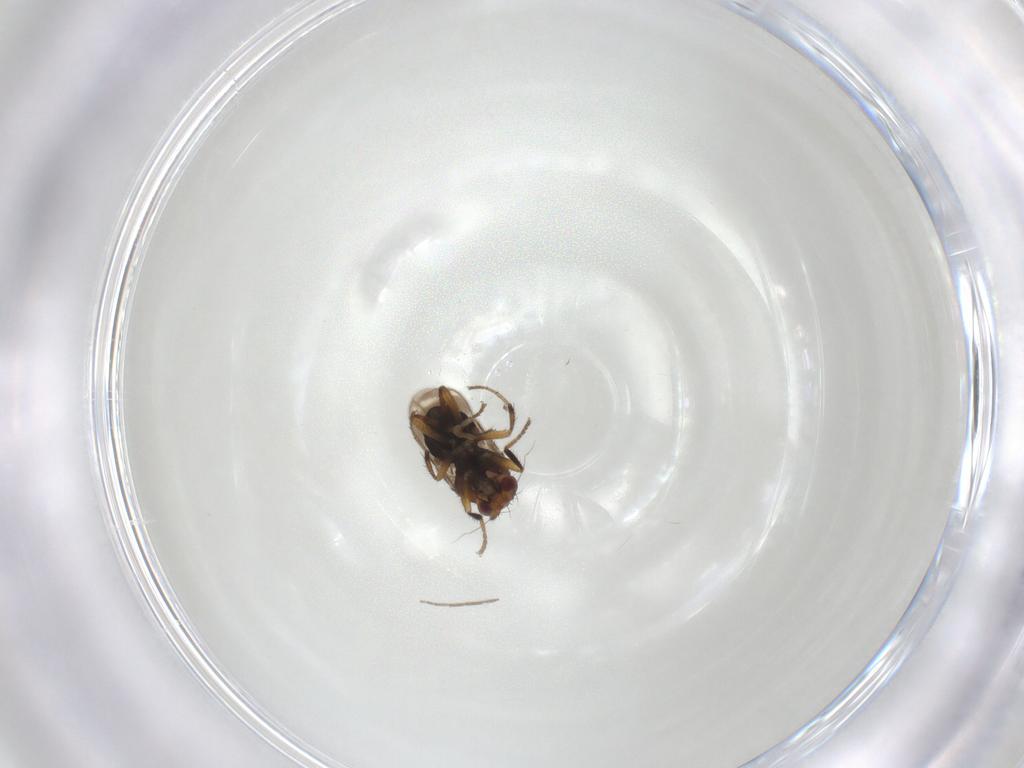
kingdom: Animalia
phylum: Arthropoda
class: Insecta
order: Diptera
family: Sphaeroceridae
